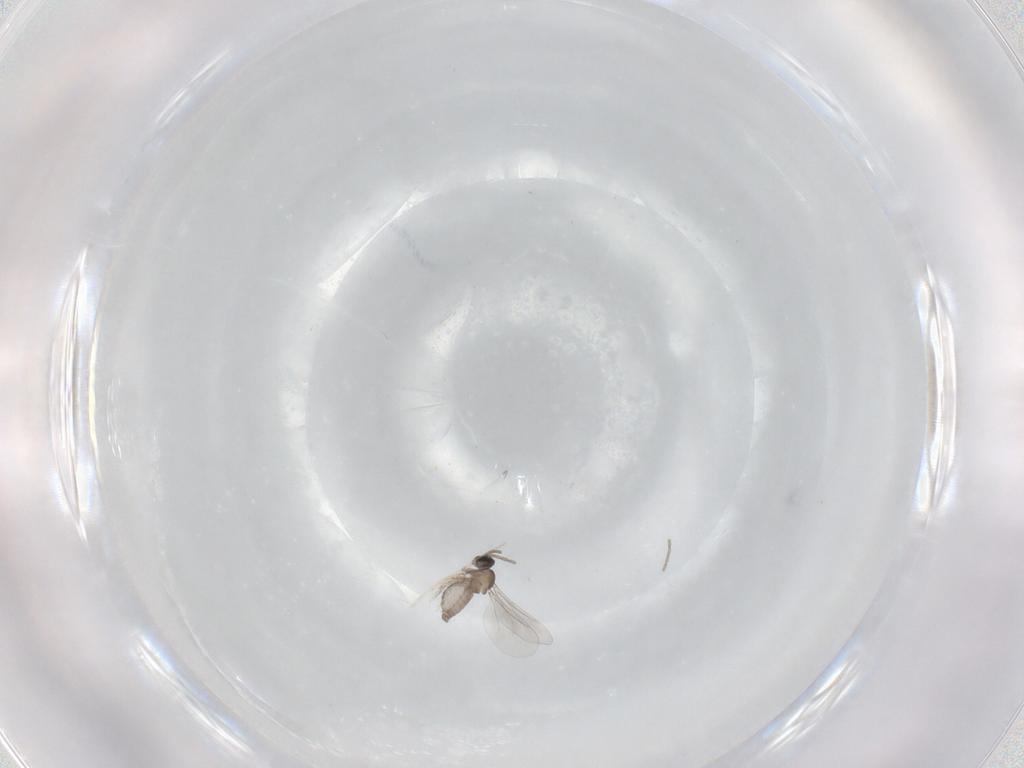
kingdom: Animalia
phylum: Arthropoda
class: Insecta
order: Diptera
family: Cecidomyiidae
